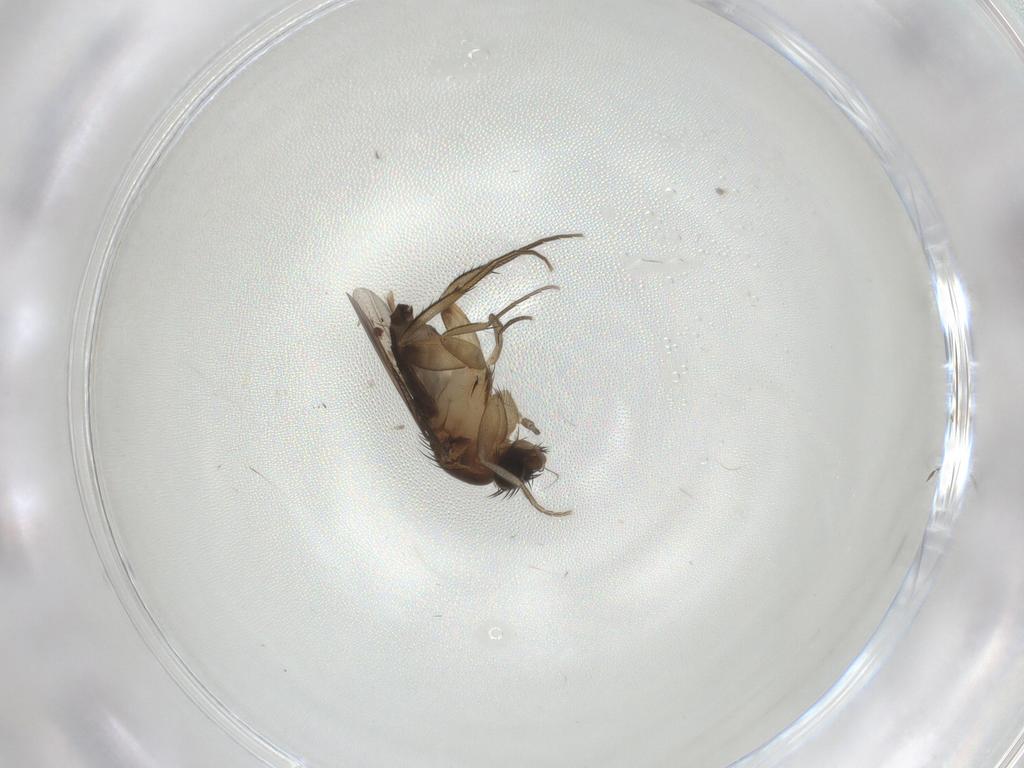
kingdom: Animalia
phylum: Arthropoda
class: Insecta
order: Diptera
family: Phoridae
